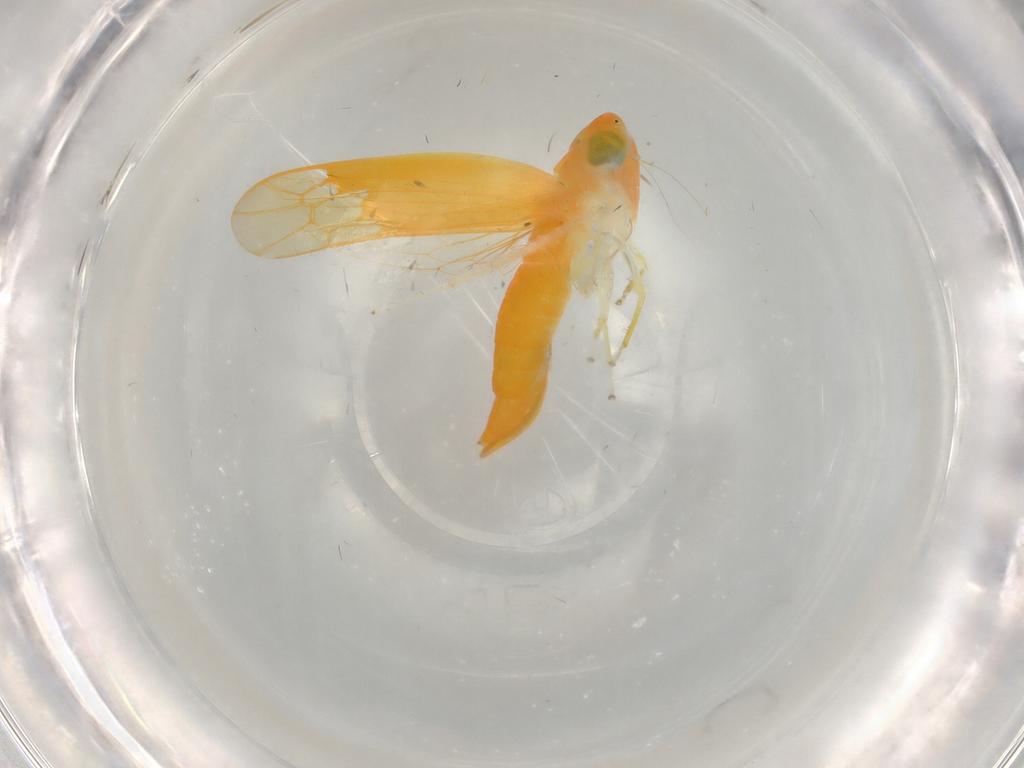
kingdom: Animalia
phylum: Arthropoda
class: Insecta
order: Hemiptera
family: Cicadellidae
